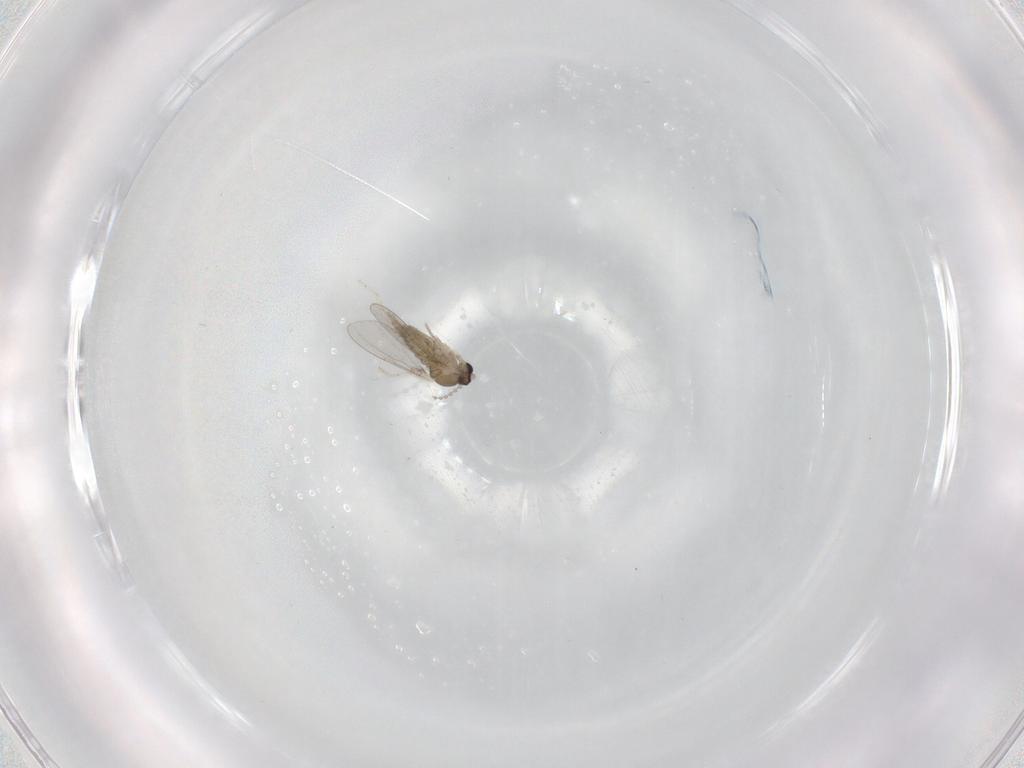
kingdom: Animalia
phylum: Arthropoda
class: Insecta
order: Diptera
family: Cecidomyiidae
